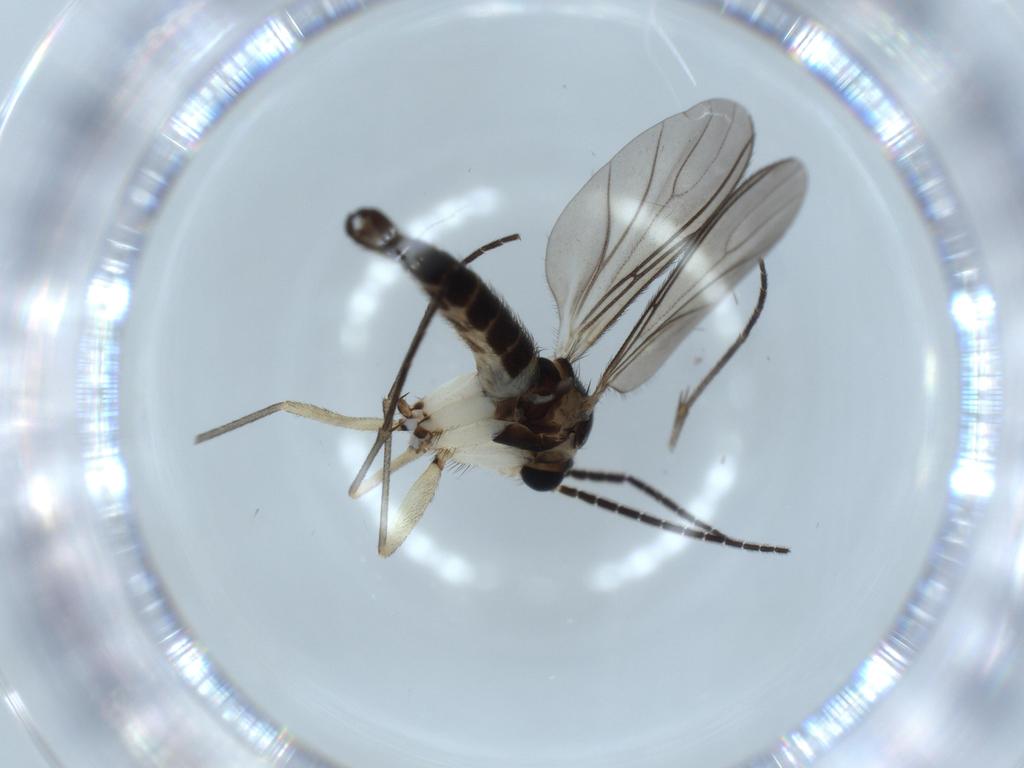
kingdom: Animalia
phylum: Arthropoda
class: Insecta
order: Diptera
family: Sciaridae
